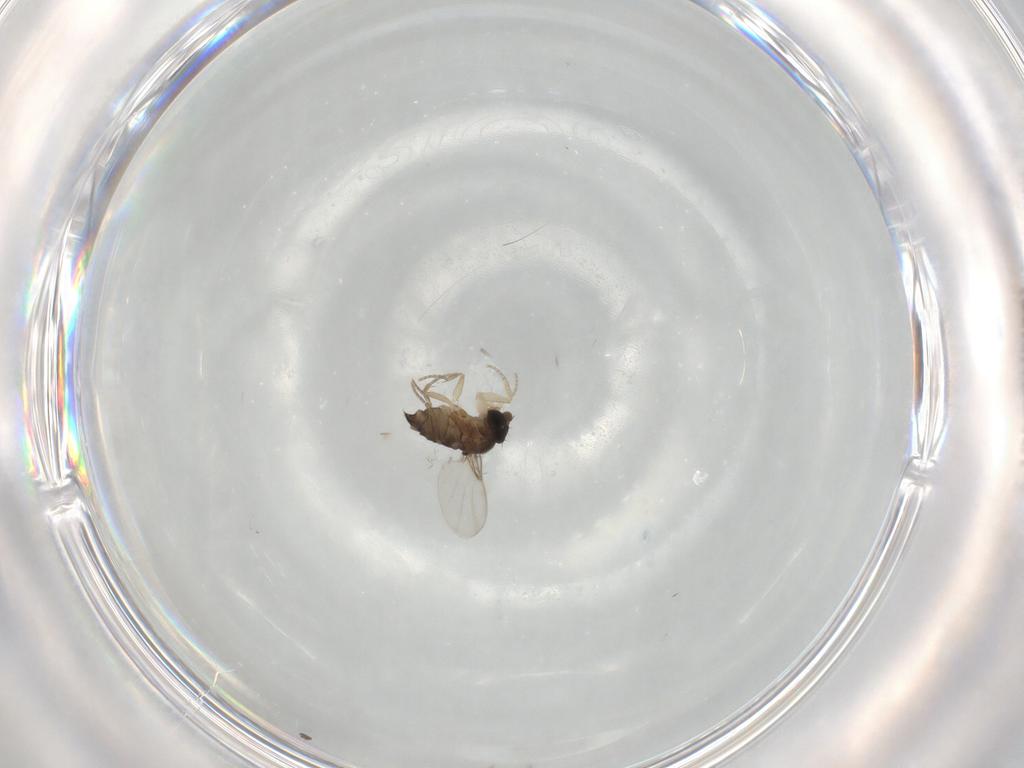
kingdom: Animalia
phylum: Arthropoda
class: Insecta
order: Diptera
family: Phoridae
